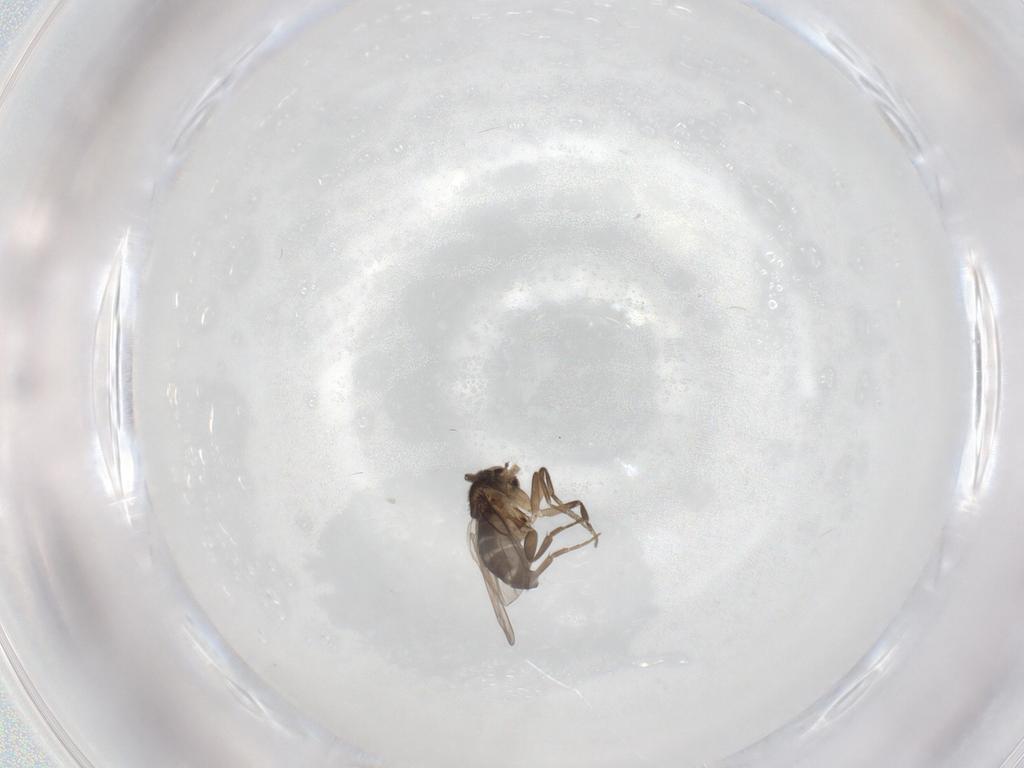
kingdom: Animalia
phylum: Arthropoda
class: Insecta
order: Diptera
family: Phoridae
